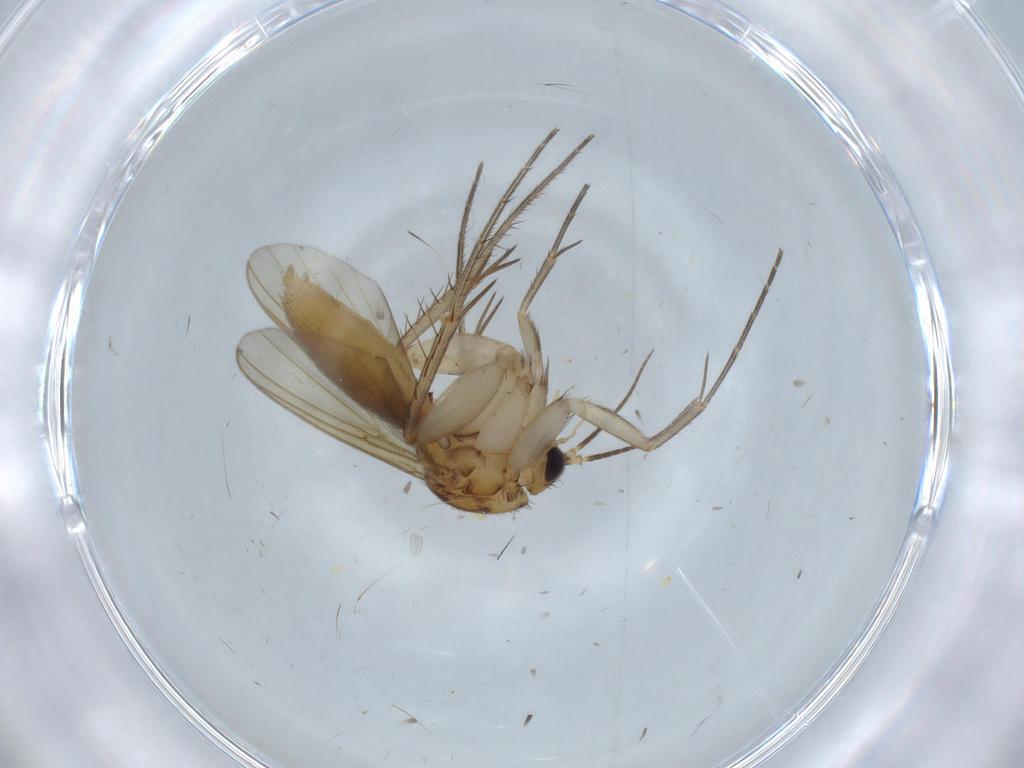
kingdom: Animalia
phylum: Arthropoda
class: Insecta
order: Diptera
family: Mycetophilidae
